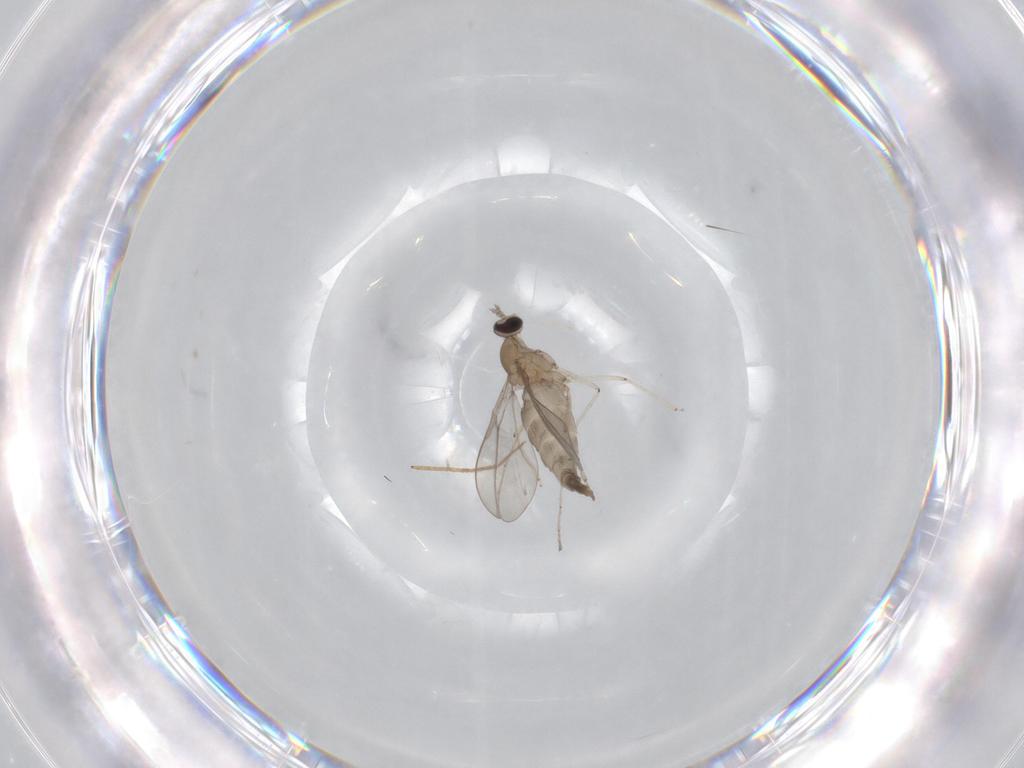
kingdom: Animalia
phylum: Arthropoda
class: Insecta
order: Diptera
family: Cecidomyiidae
